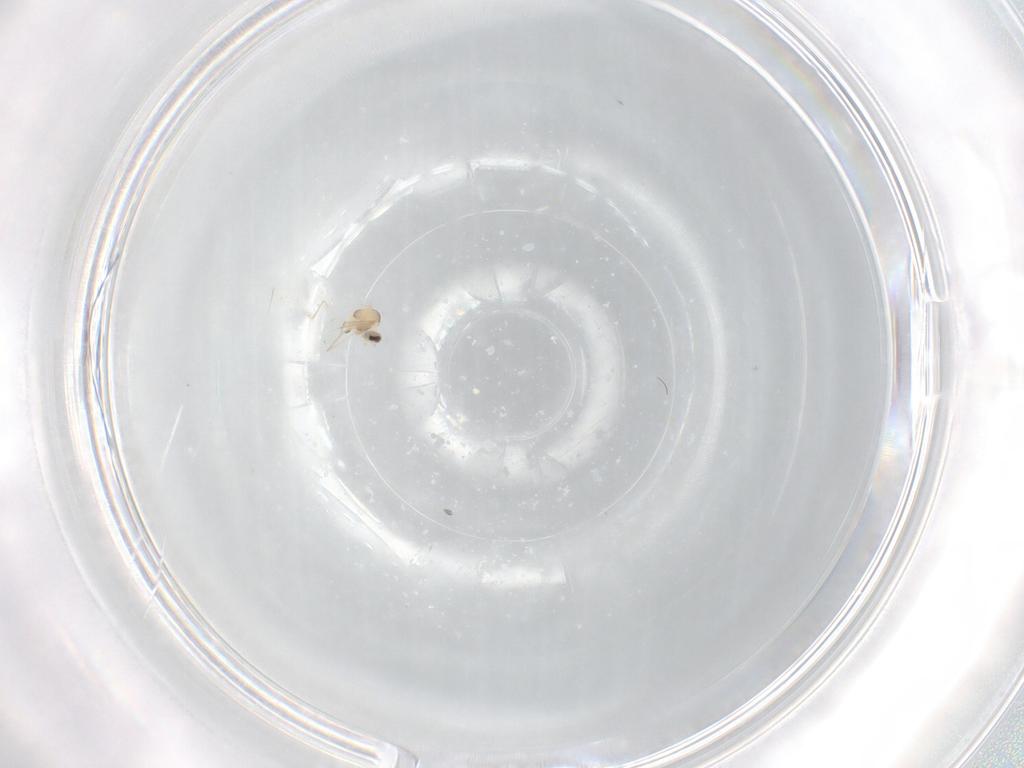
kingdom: Animalia
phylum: Arthropoda
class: Insecta
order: Diptera
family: Cecidomyiidae
